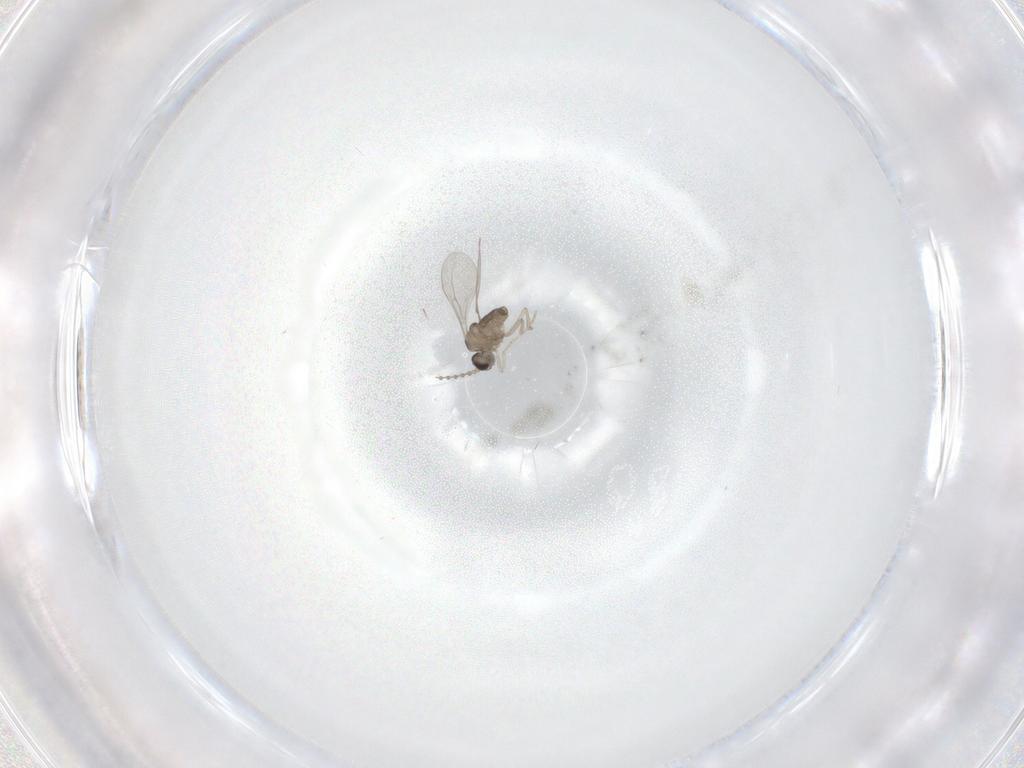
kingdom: Animalia
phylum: Arthropoda
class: Insecta
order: Diptera
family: Cecidomyiidae
